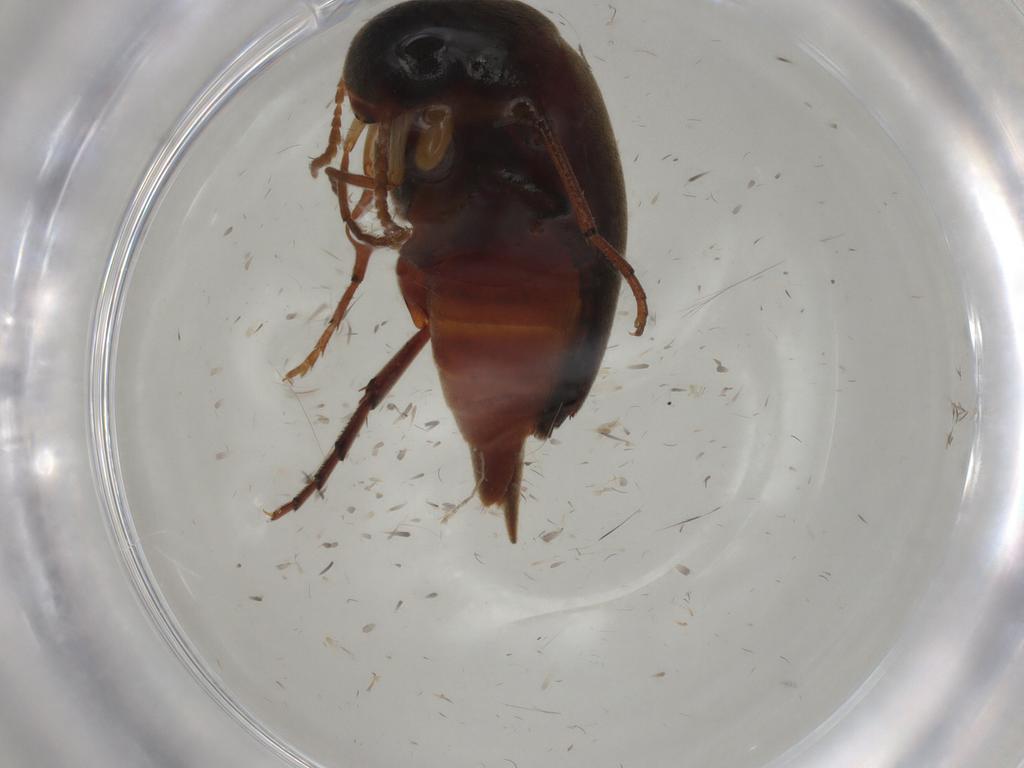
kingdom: Animalia
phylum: Arthropoda
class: Insecta
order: Coleoptera
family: Mordellidae
